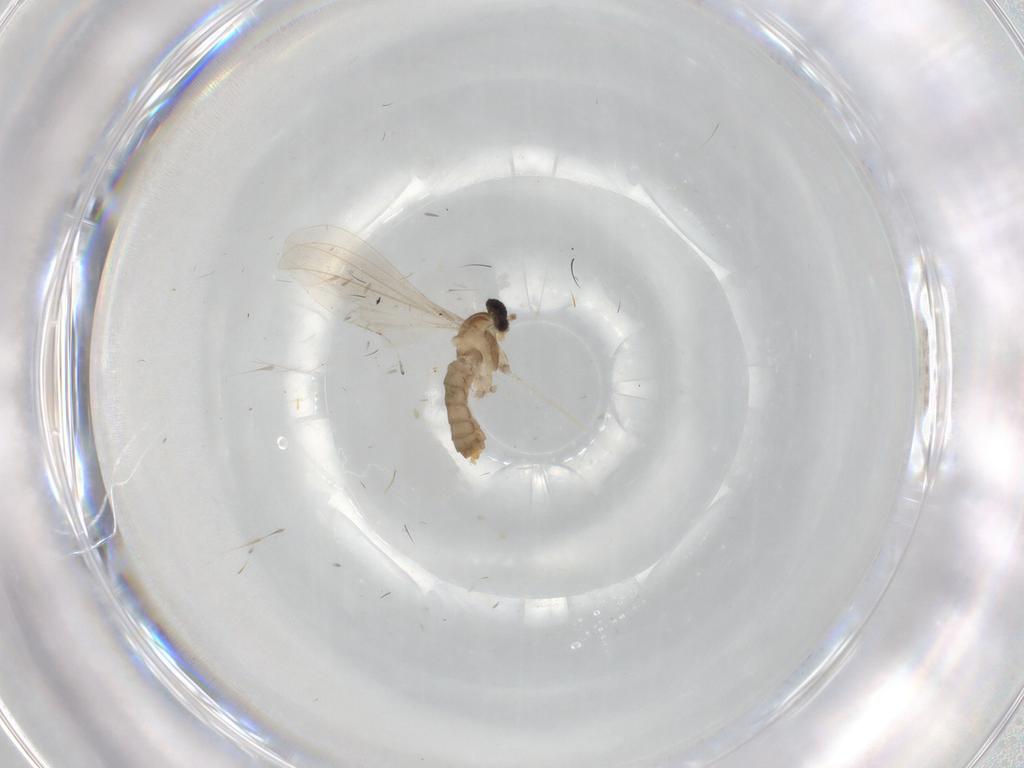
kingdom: Animalia
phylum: Arthropoda
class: Insecta
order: Diptera
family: Cecidomyiidae
